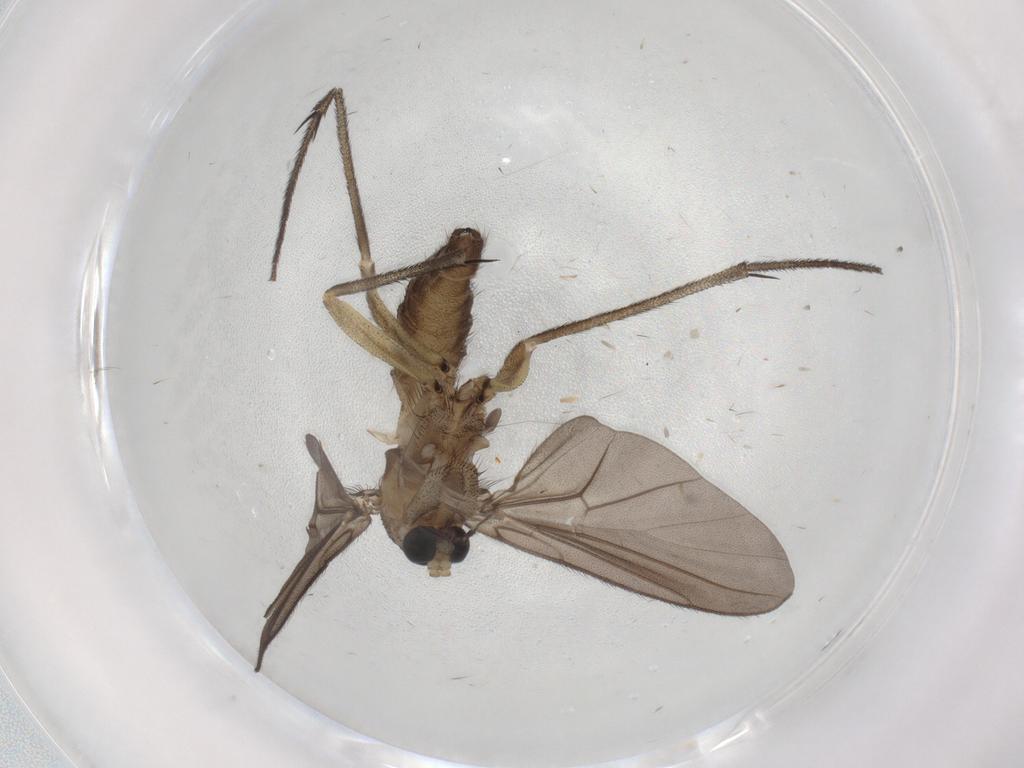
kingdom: Animalia
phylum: Arthropoda
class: Insecta
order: Diptera
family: Cecidomyiidae
